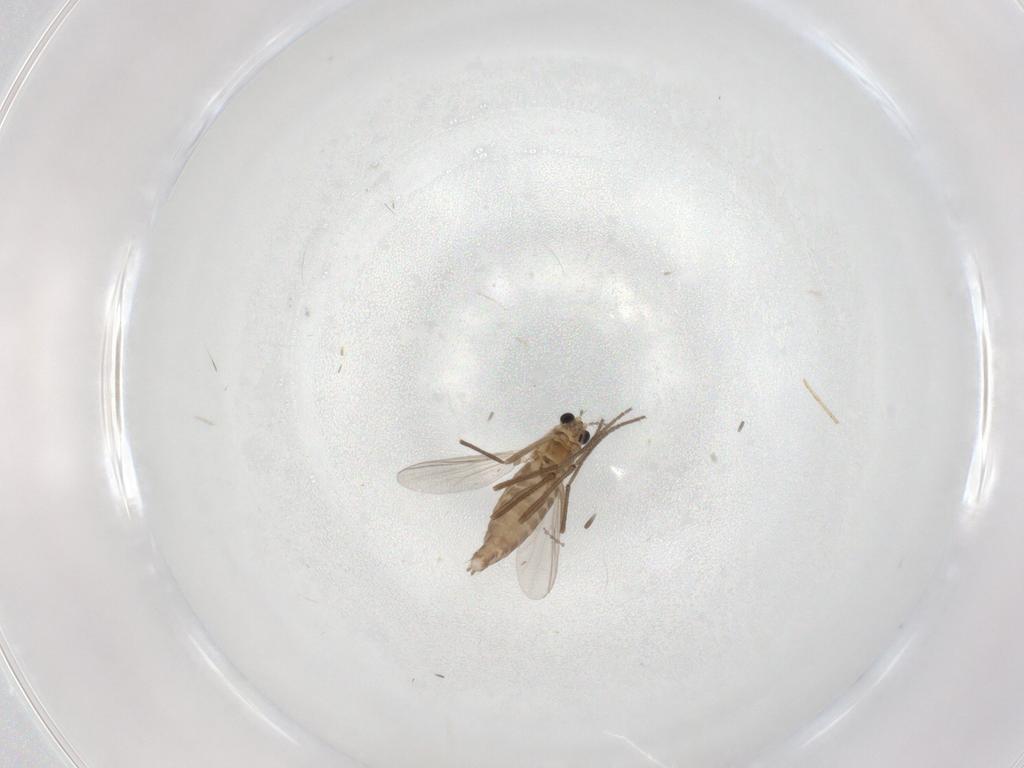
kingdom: Animalia
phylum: Arthropoda
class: Insecta
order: Diptera
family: Chironomidae
